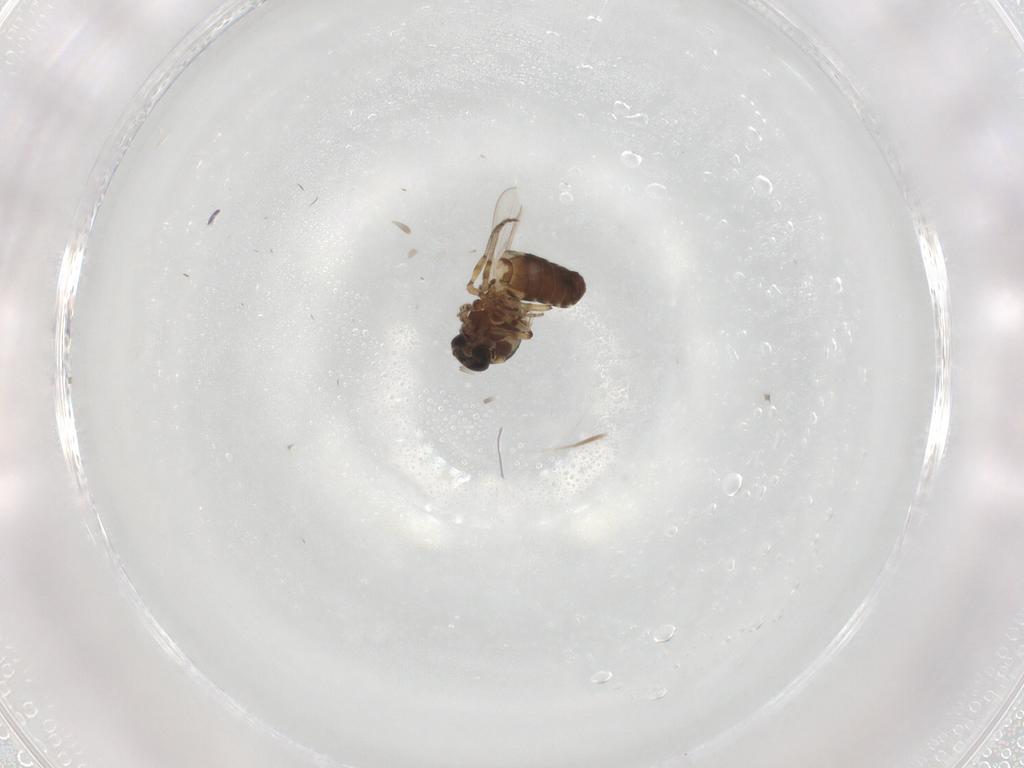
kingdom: Animalia
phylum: Arthropoda
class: Insecta
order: Diptera
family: Ceratopogonidae
